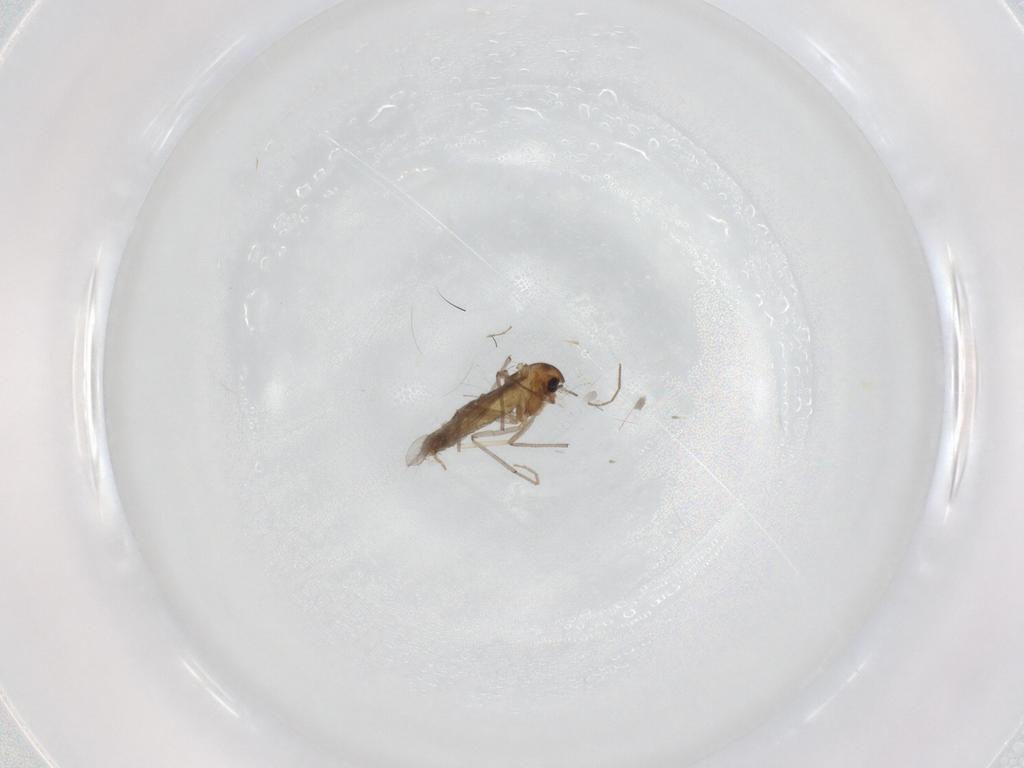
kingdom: Animalia
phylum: Arthropoda
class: Insecta
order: Diptera
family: Chironomidae
